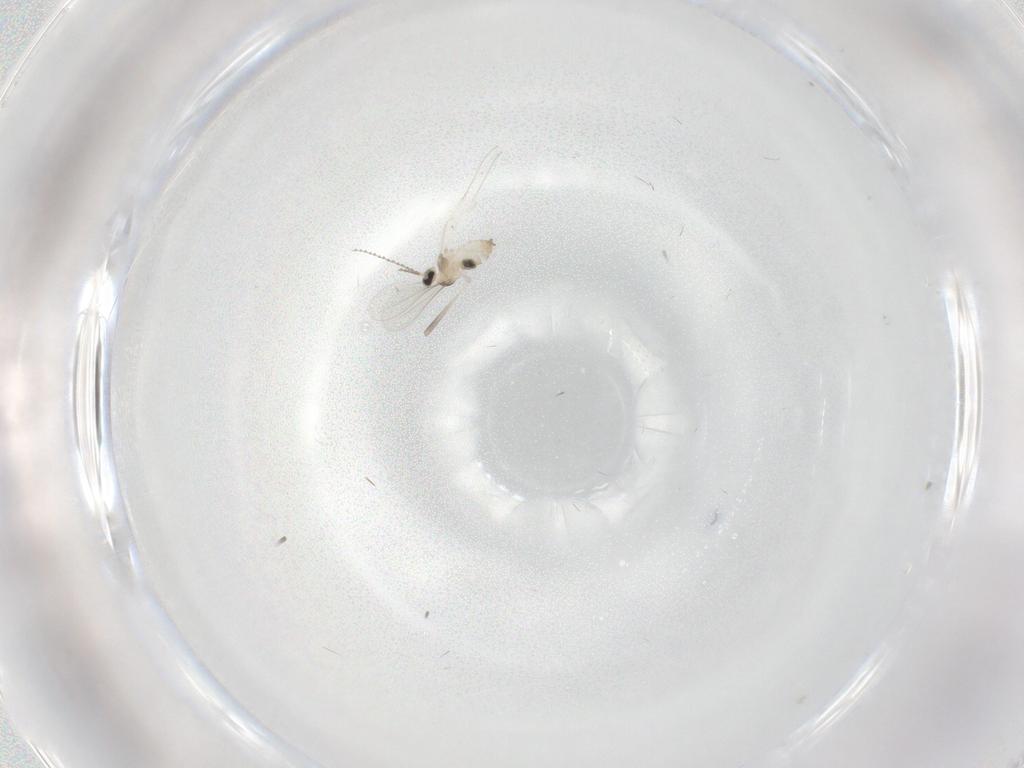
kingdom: Animalia
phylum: Arthropoda
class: Insecta
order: Diptera
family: Cecidomyiidae
